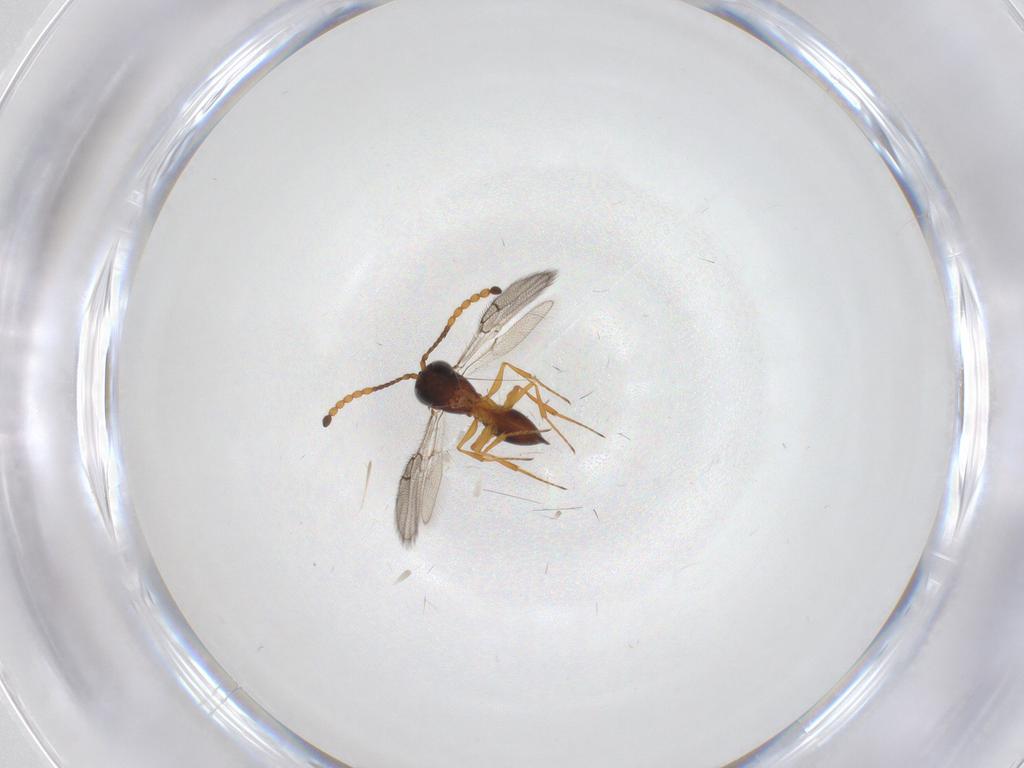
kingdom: Animalia
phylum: Arthropoda
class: Insecta
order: Hymenoptera
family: Figitidae
